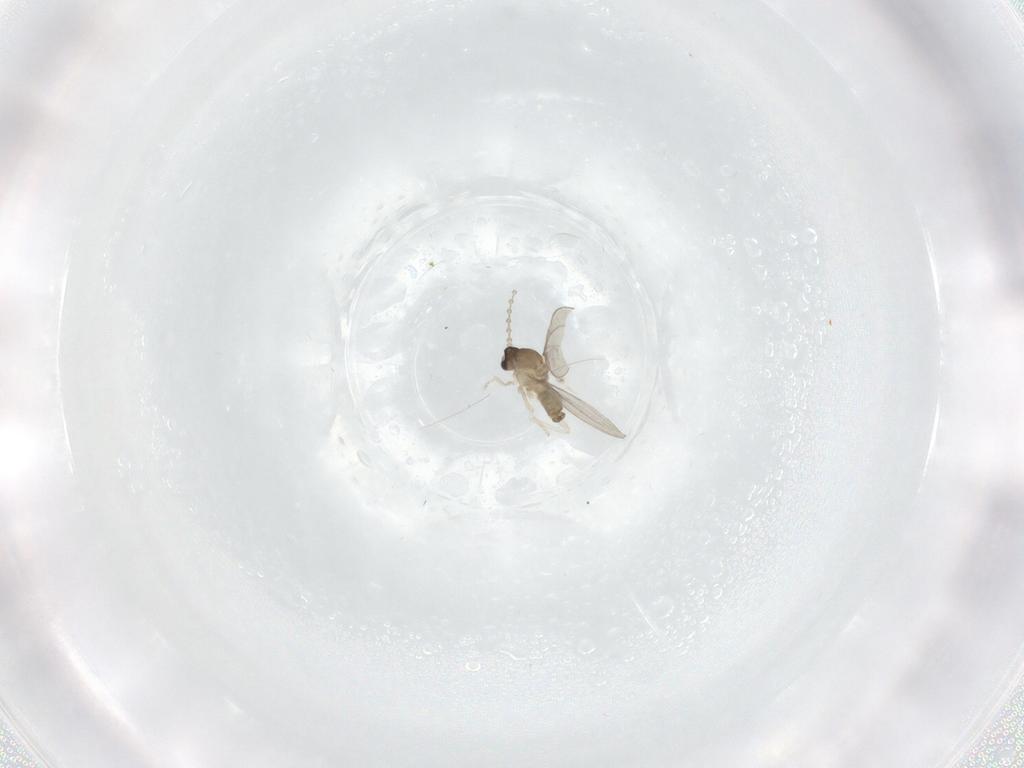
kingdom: Animalia
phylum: Arthropoda
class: Insecta
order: Diptera
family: Cecidomyiidae
